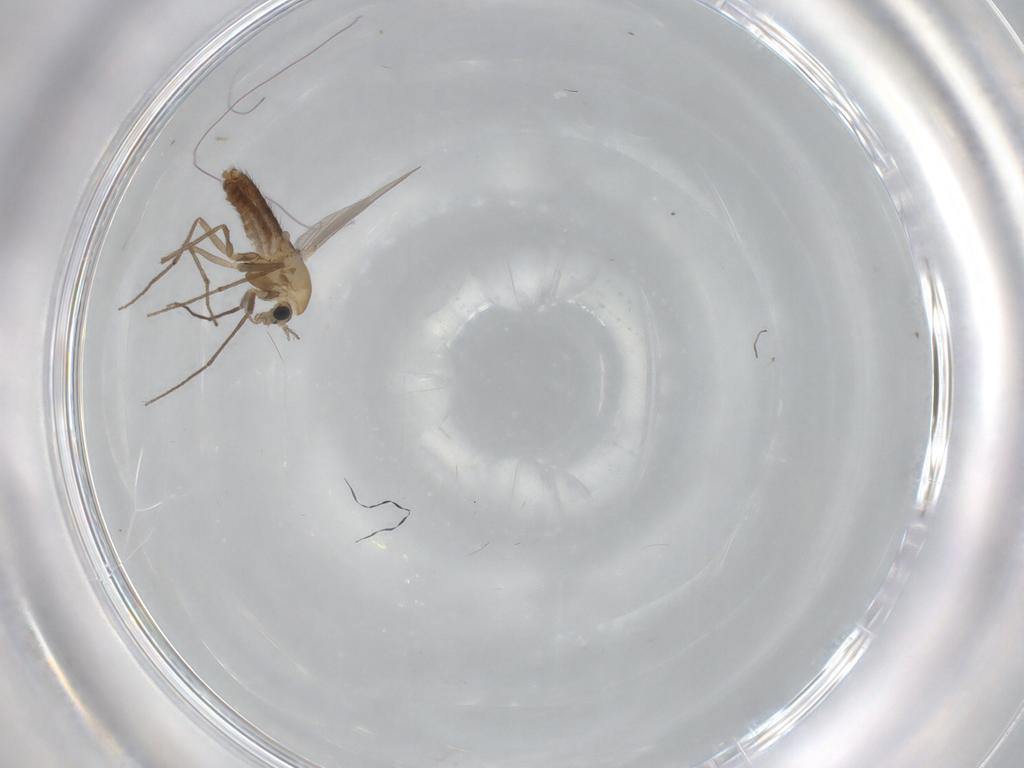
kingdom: Animalia
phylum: Arthropoda
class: Insecta
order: Diptera
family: Chironomidae
